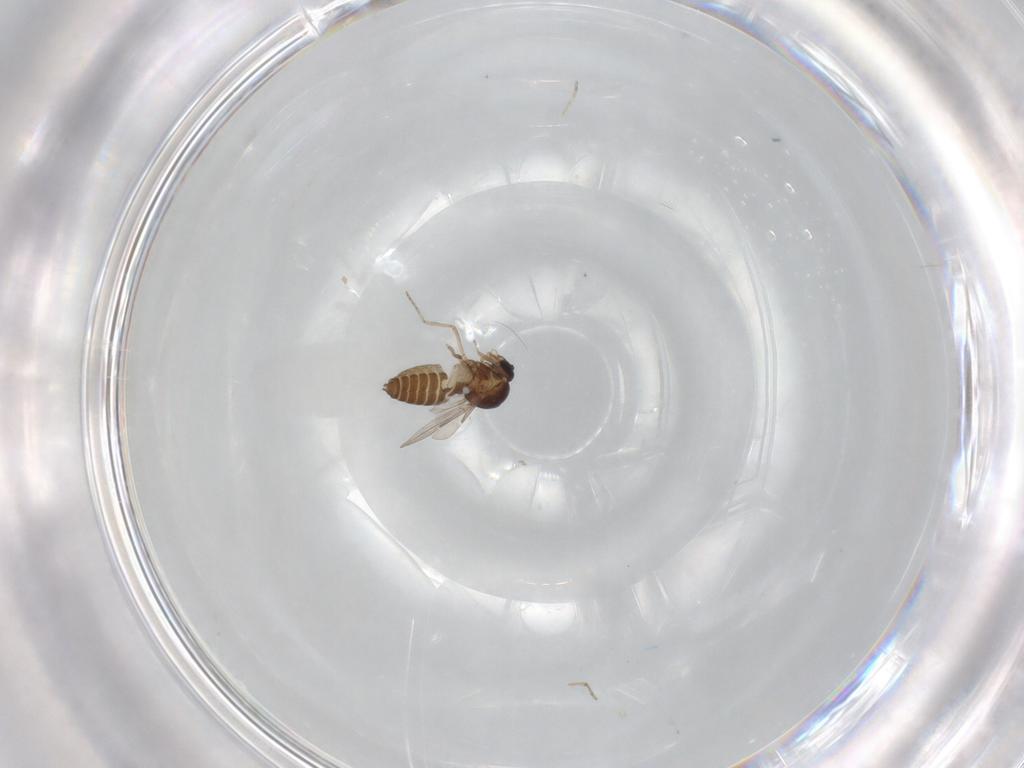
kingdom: Animalia
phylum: Arthropoda
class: Insecta
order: Diptera
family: Ceratopogonidae
